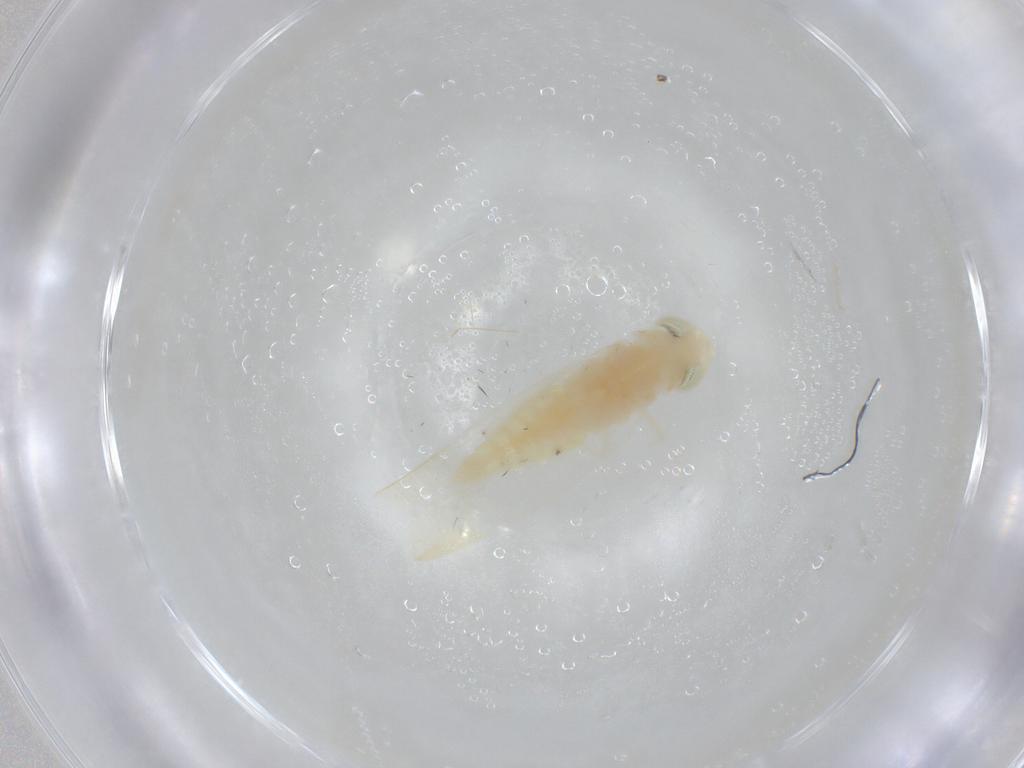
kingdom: Animalia
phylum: Arthropoda
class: Insecta
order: Hemiptera
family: Cicadellidae
